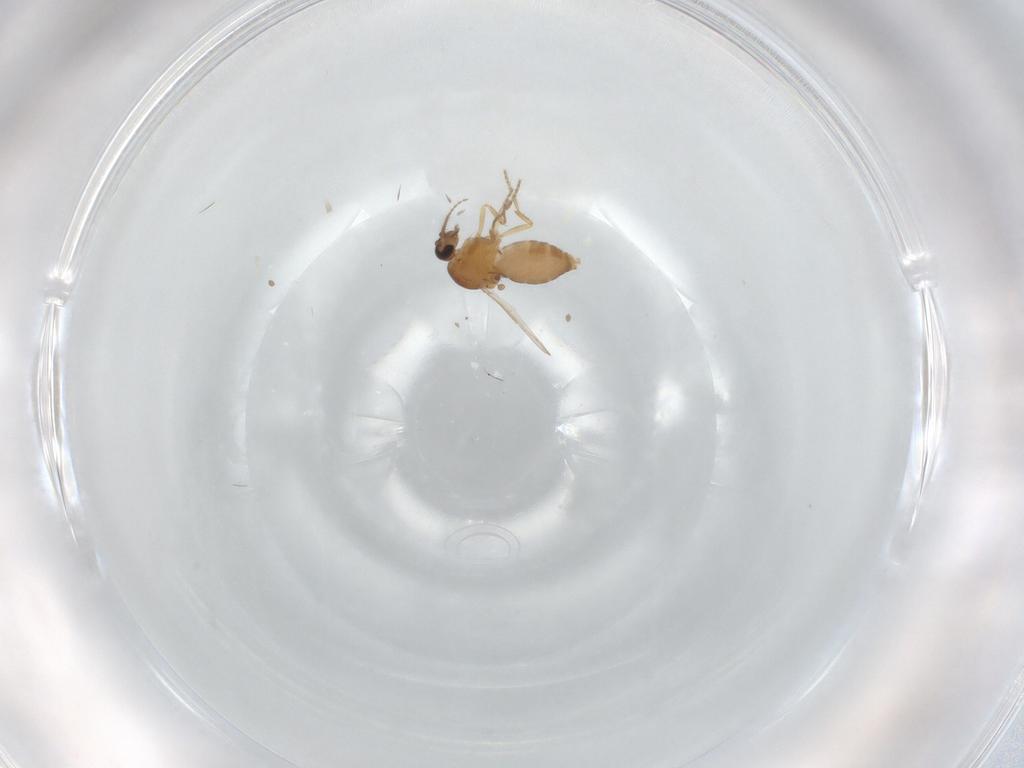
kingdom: Animalia
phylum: Arthropoda
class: Insecta
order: Diptera
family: Ceratopogonidae
